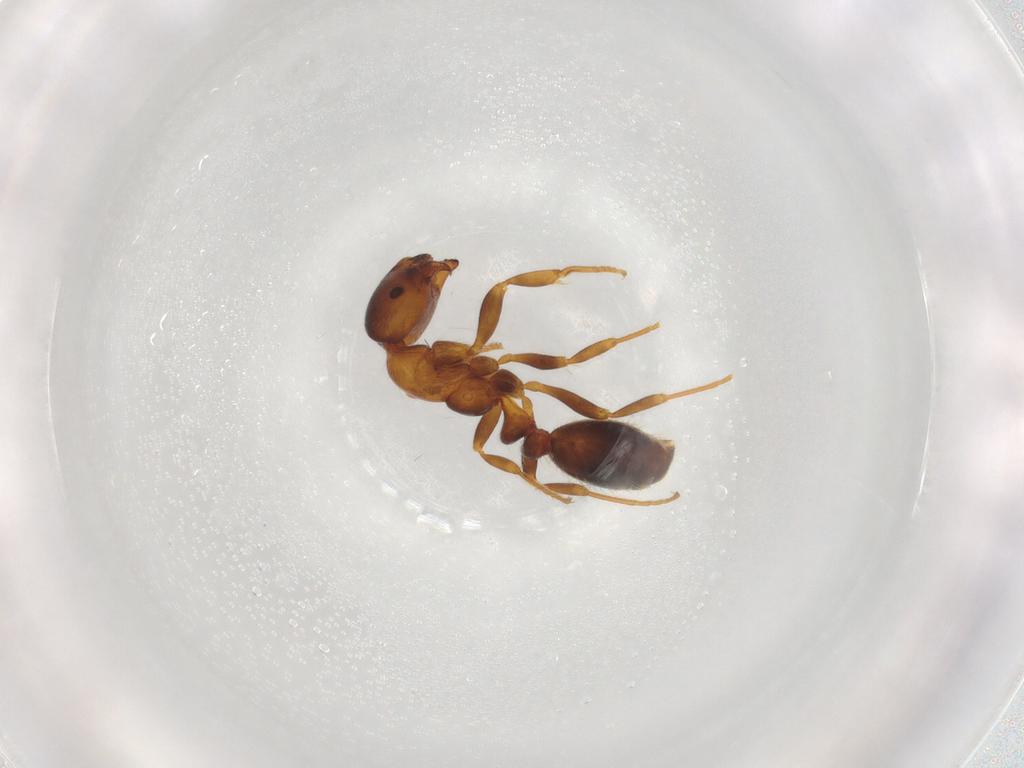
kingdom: Animalia
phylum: Arthropoda
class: Insecta
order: Hymenoptera
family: Formicidae
